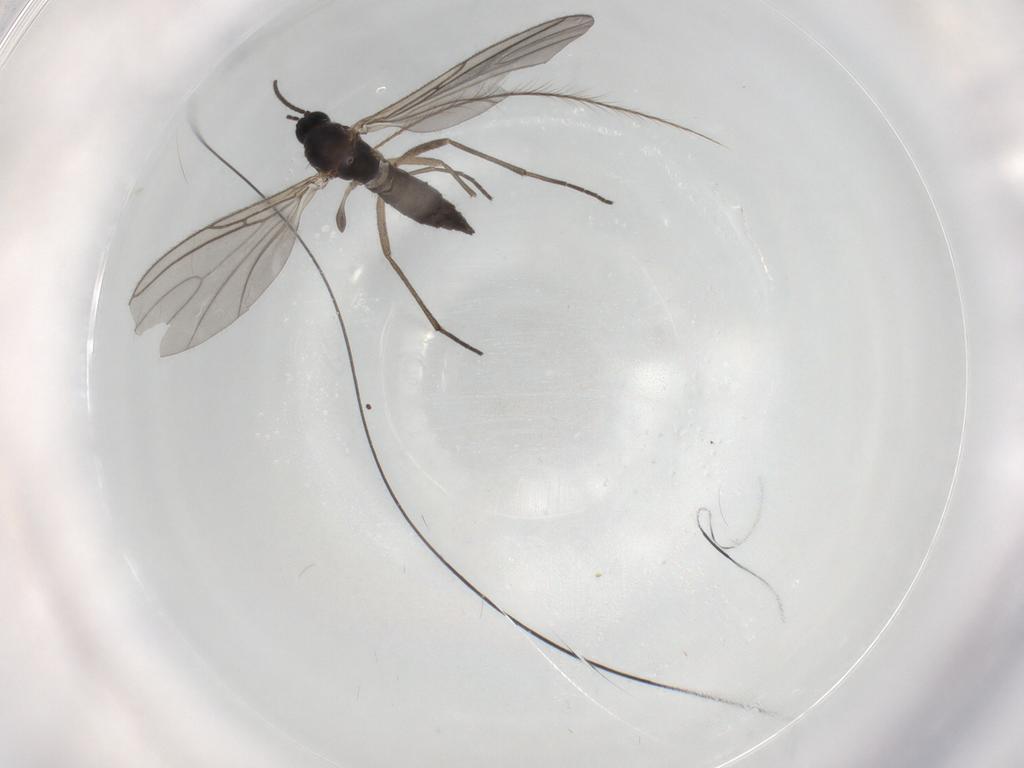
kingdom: Animalia
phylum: Arthropoda
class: Insecta
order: Diptera
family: Sciaridae
